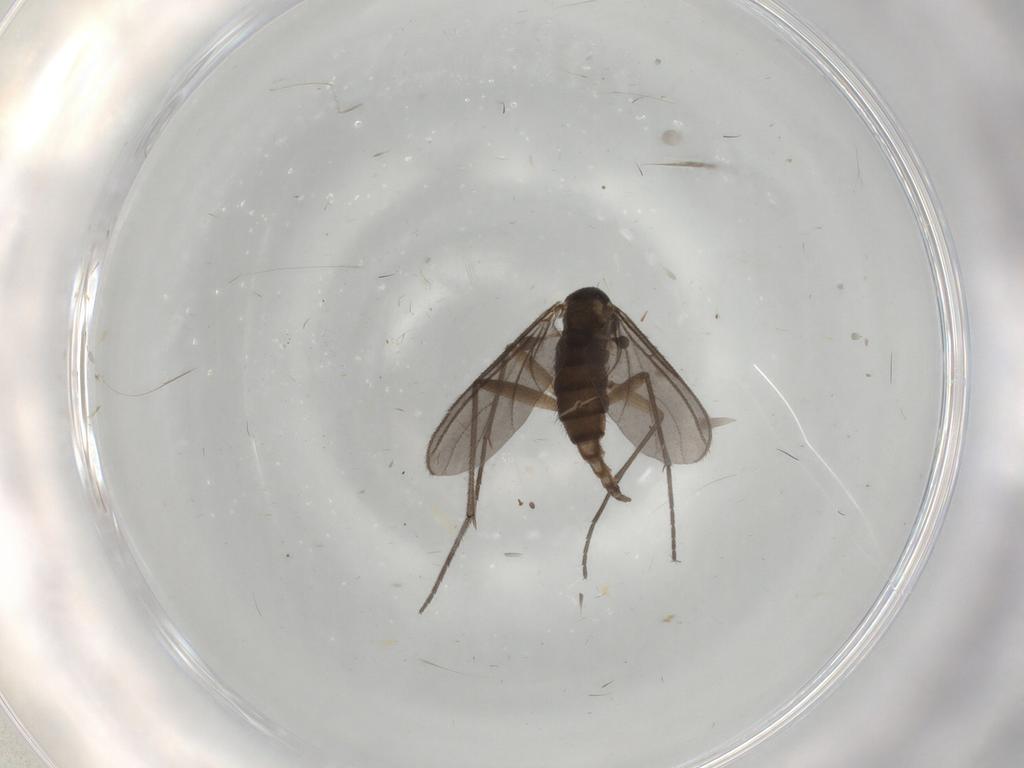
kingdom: Animalia
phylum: Arthropoda
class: Insecta
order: Diptera
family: Sciaridae
